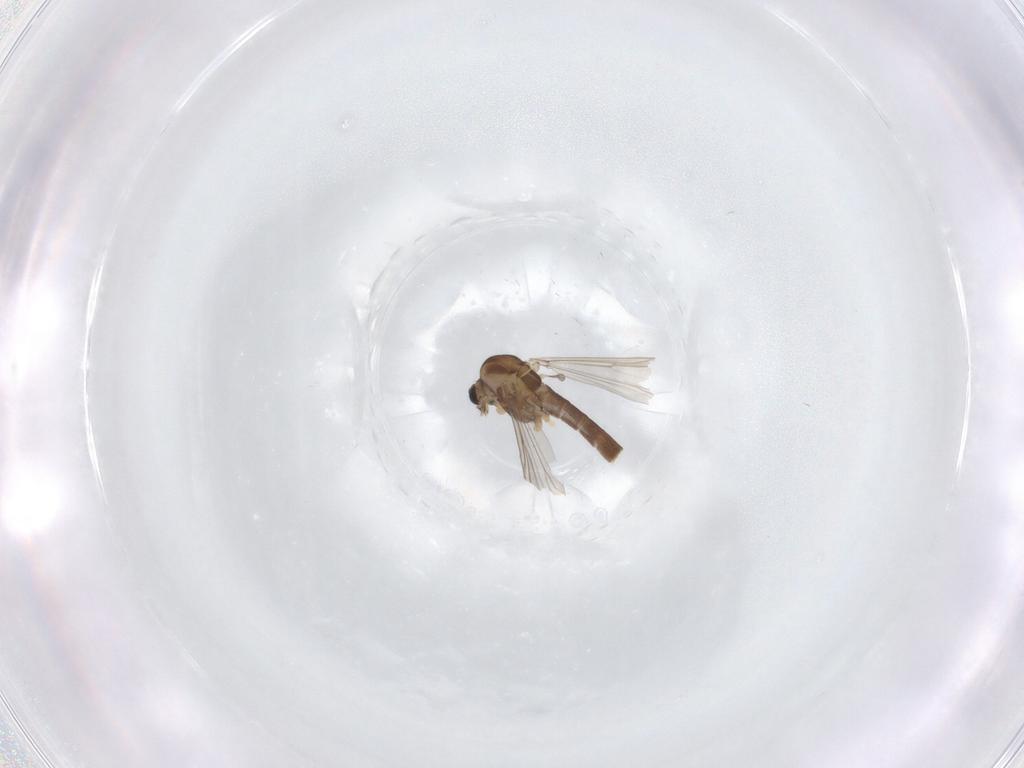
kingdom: Animalia
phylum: Arthropoda
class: Insecta
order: Diptera
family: Chironomidae
